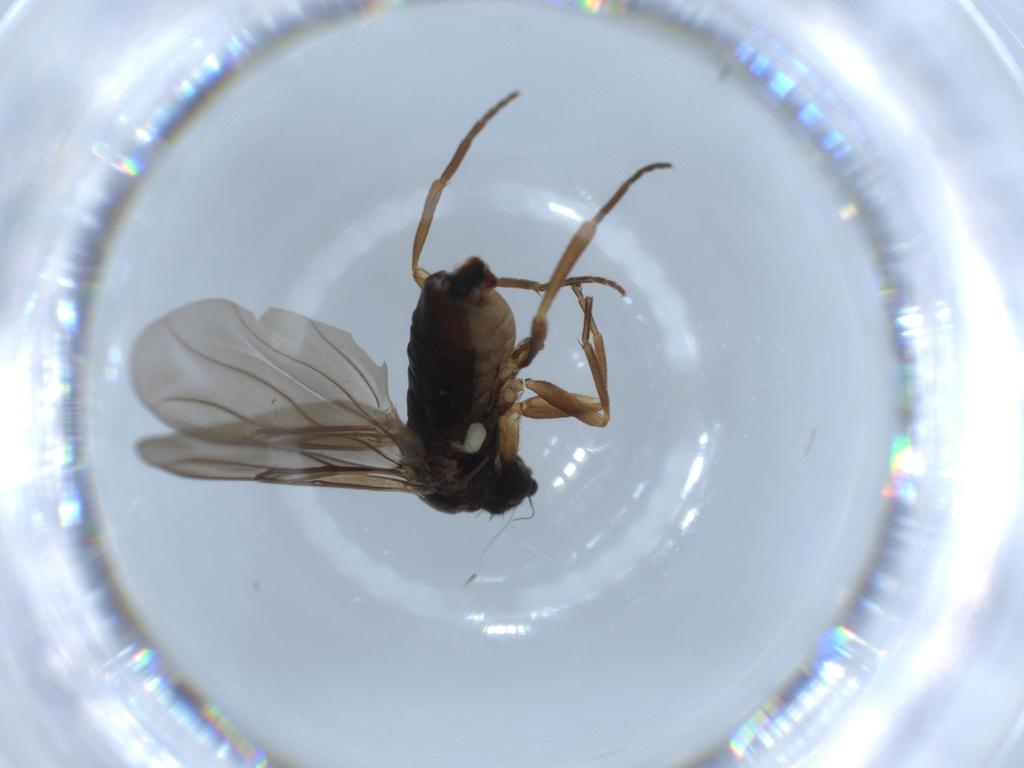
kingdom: Animalia
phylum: Arthropoda
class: Insecta
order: Diptera
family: Heleomyzidae
